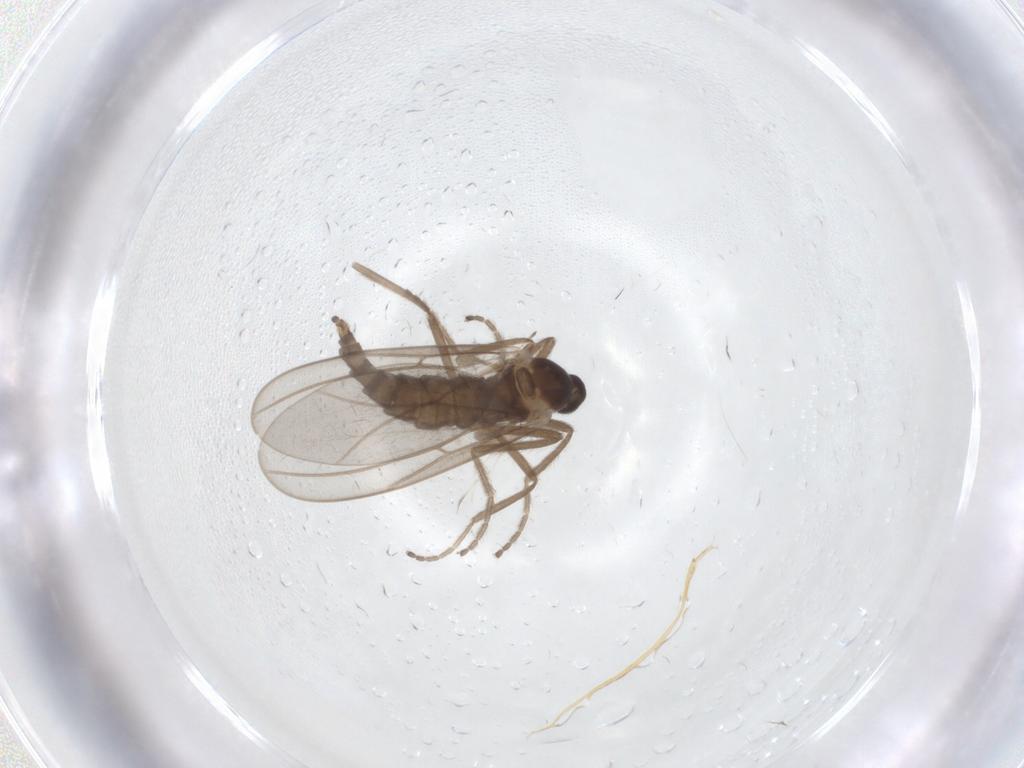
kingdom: Animalia
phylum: Arthropoda
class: Insecta
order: Diptera
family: Cecidomyiidae
